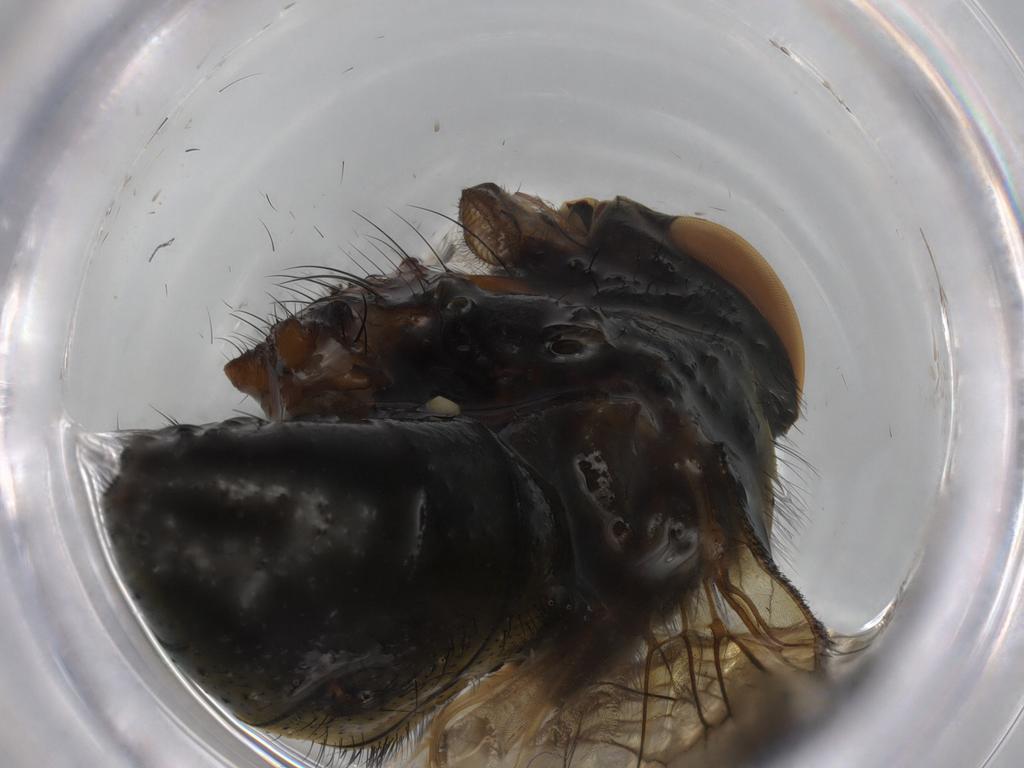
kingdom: Animalia
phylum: Arthropoda
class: Insecta
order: Diptera
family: Muscidae
